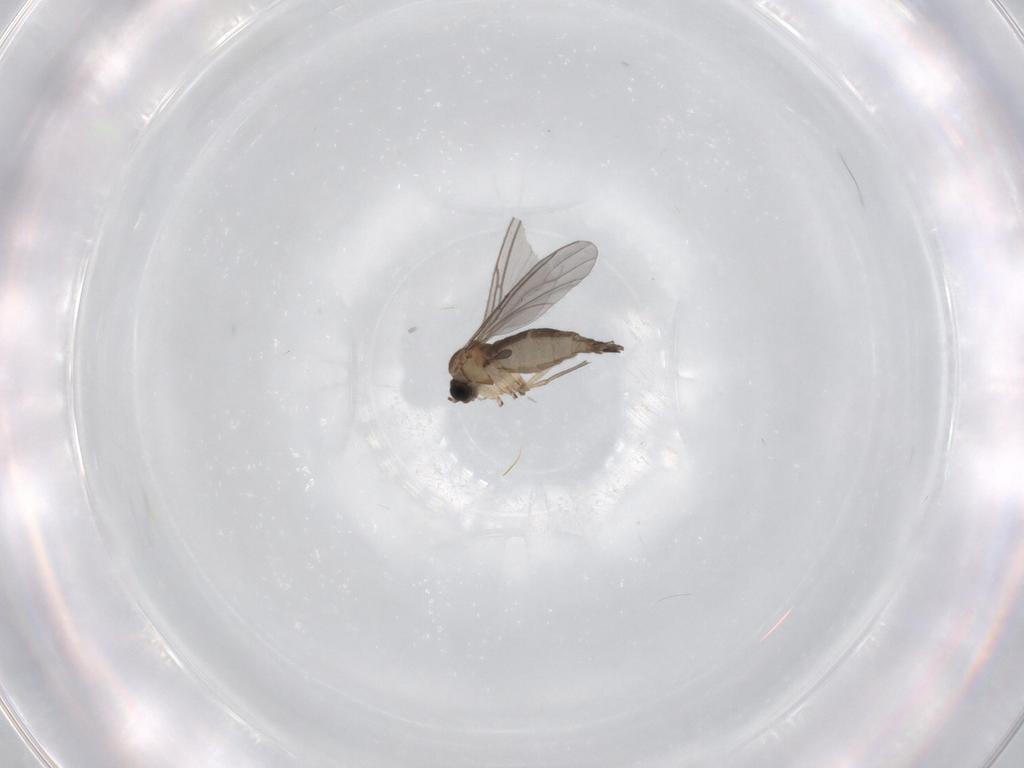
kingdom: Animalia
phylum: Arthropoda
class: Insecta
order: Diptera
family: Sciaridae
